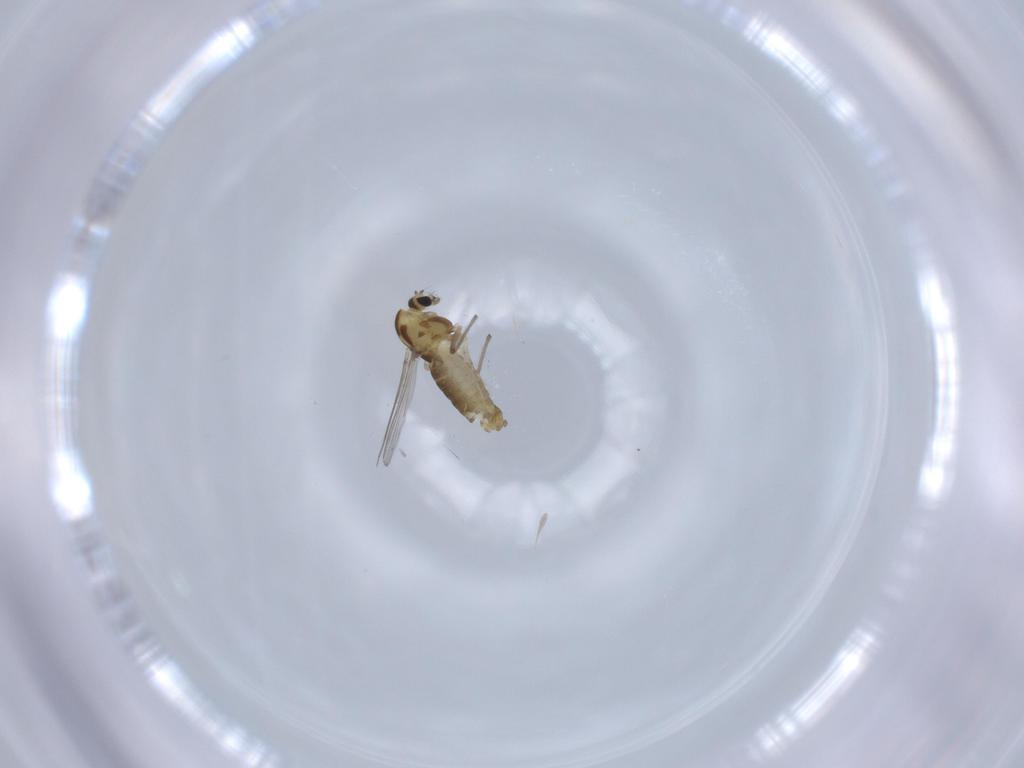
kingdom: Animalia
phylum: Arthropoda
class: Insecta
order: Diptera
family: Chironomidae
